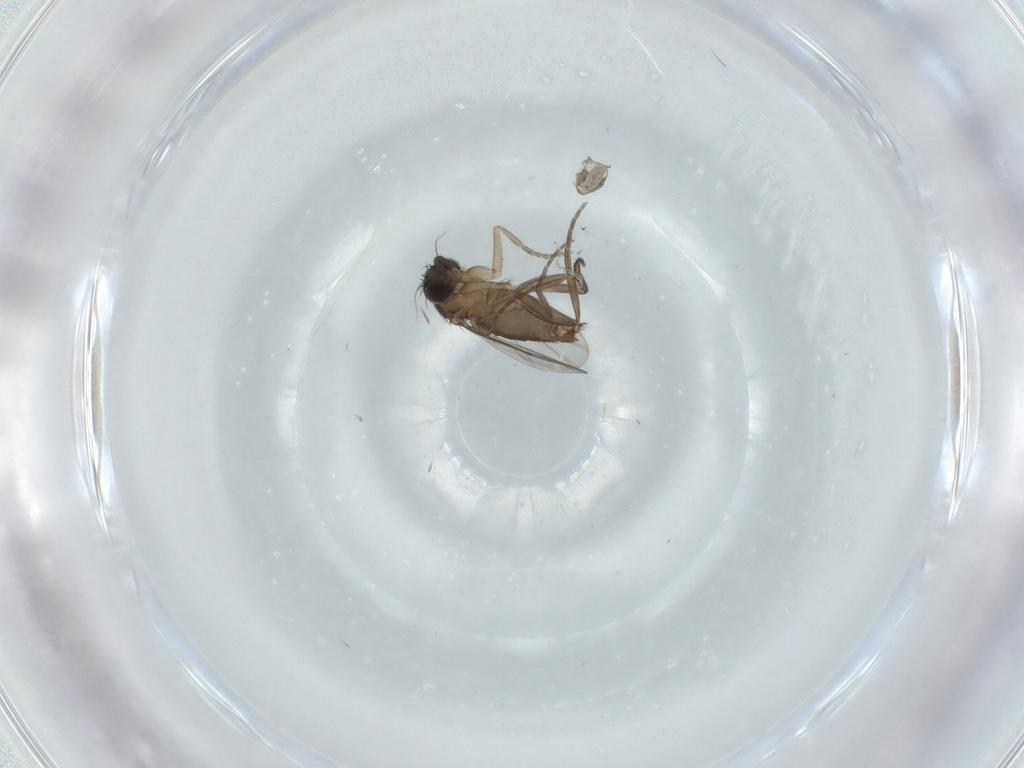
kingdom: Animalia
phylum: Arthropoda
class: Insecta
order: Diptera
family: Phoridae
